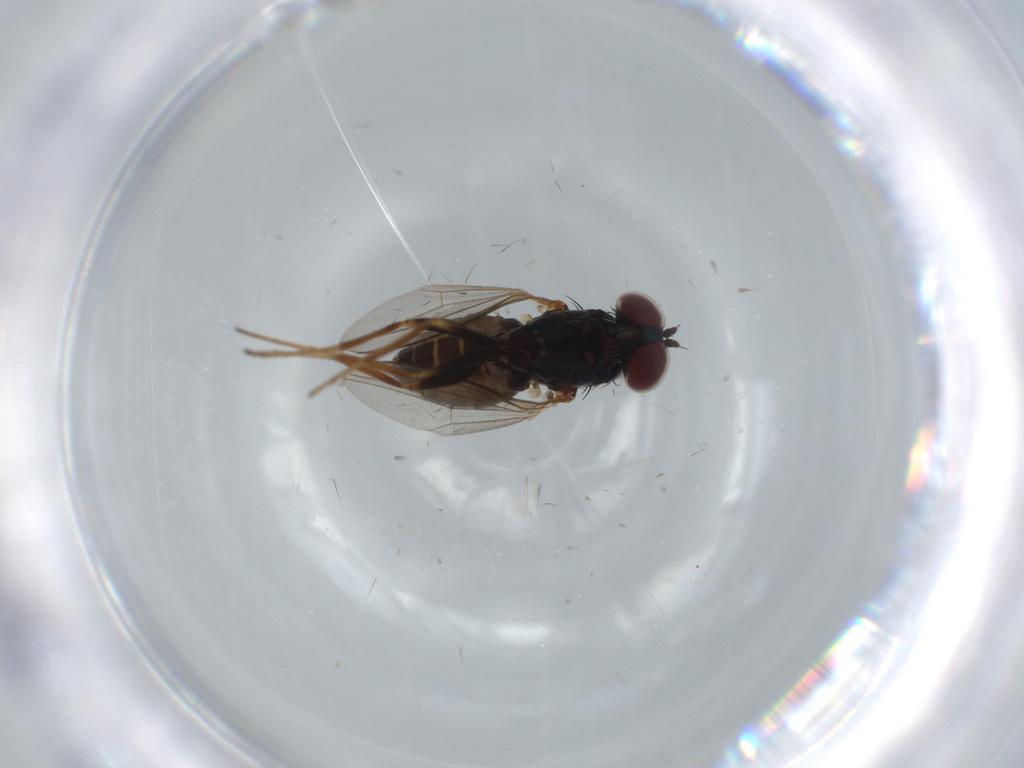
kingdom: Animalia
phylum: Arthropoda
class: Insecta
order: Diptera
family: Dolichopodidae
